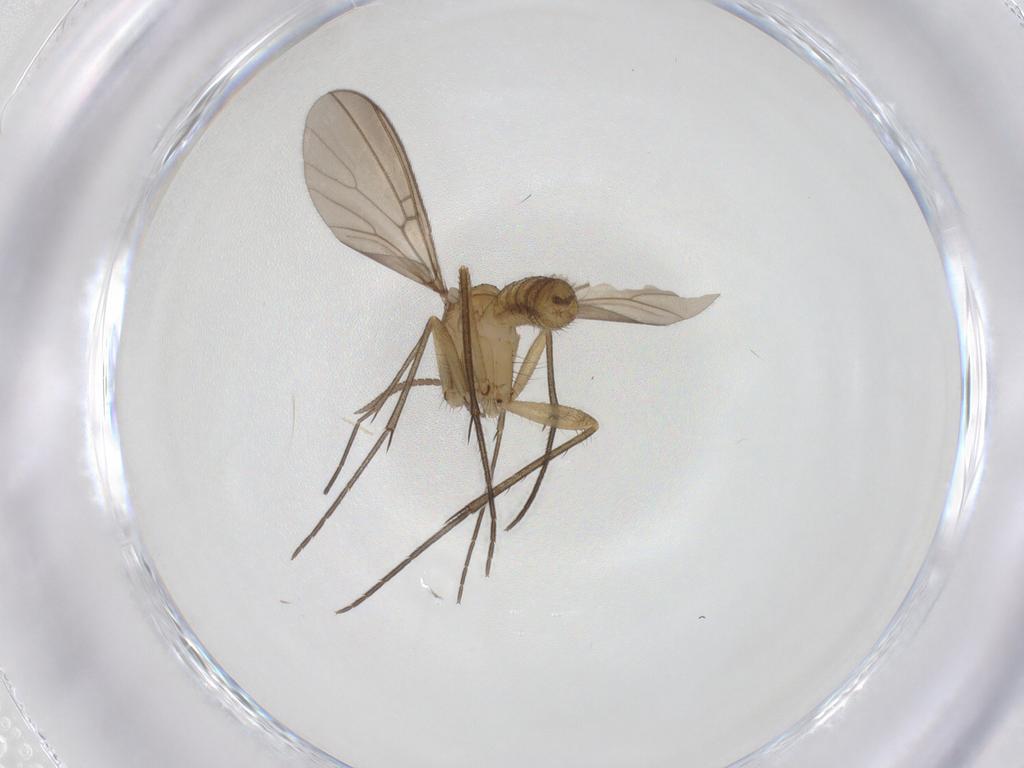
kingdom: Animalia
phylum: Arthropoda
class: Insecta
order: Diptera
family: Mycetophilidae
